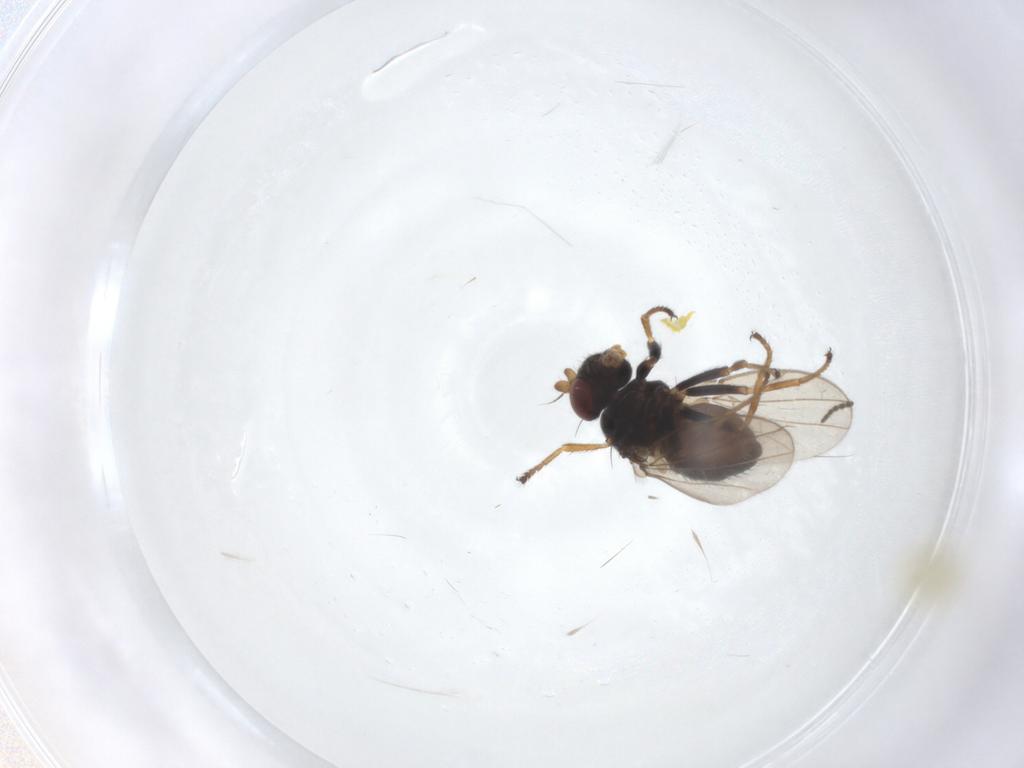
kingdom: Animalia
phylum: Arthropoda
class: Insecta
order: Diptera
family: Ephydridae
